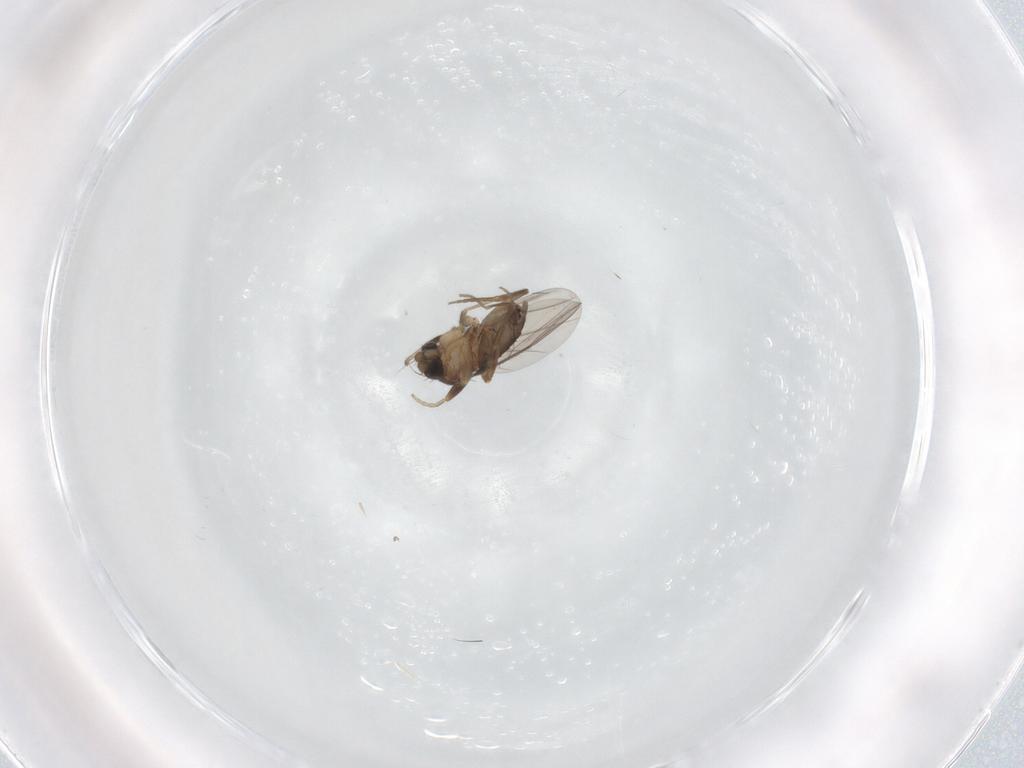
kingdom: Animalia
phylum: Arthropoda
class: Insecta
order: Diptera
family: Phoridae
